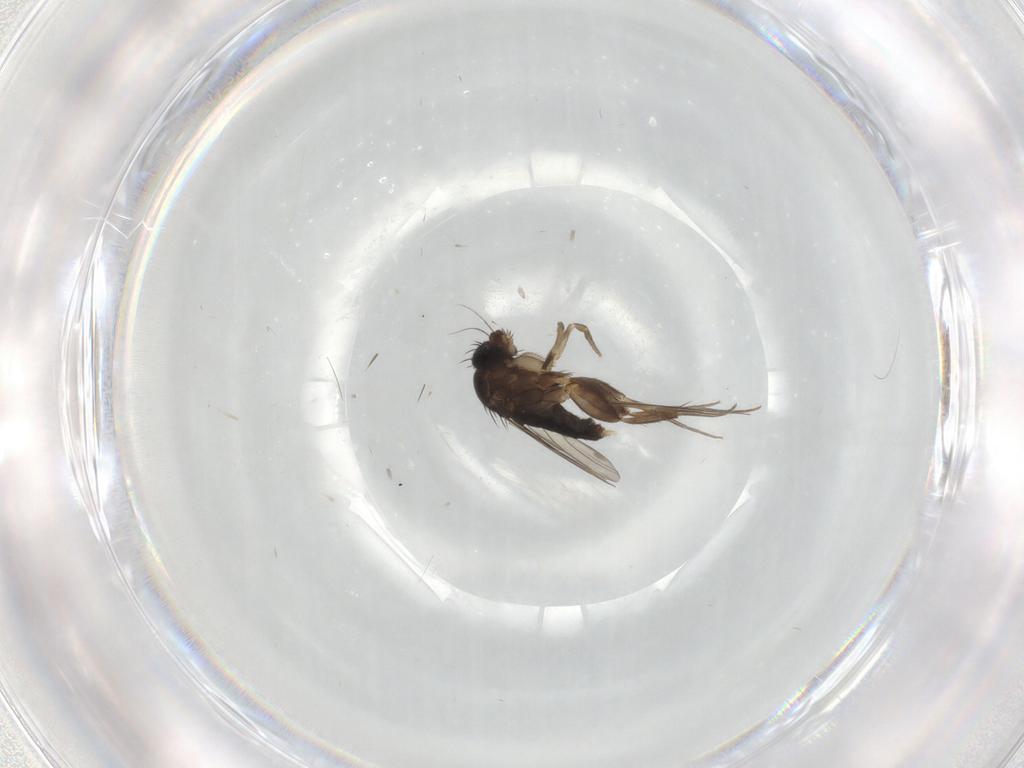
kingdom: Animalia
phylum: Arthropoda
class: Insecta
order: Diptera
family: Phoridae
